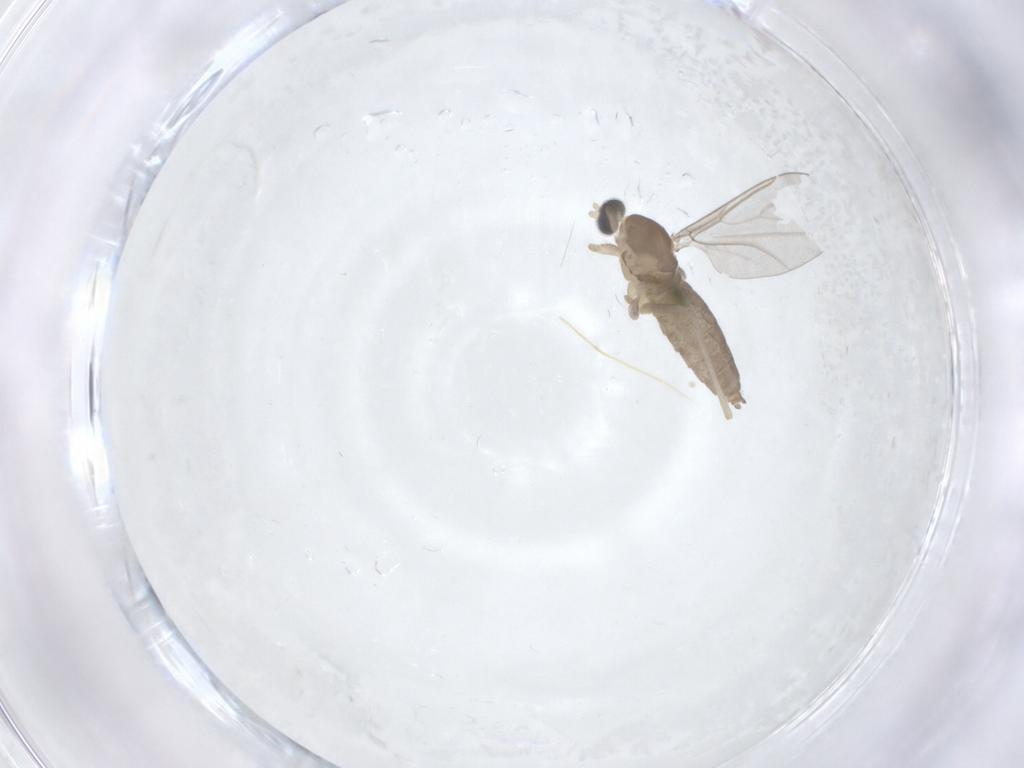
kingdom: Animalia
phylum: Arthropoda
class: Insecta
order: Diptera
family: Cecidomyiidae
